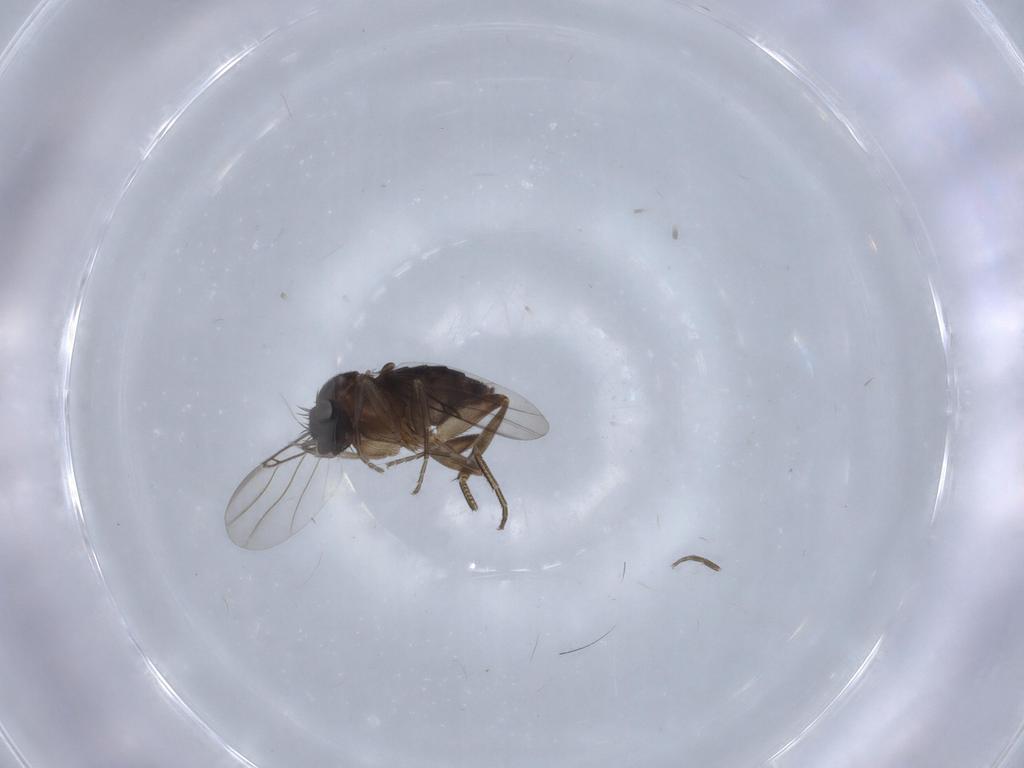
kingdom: Animalia
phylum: Arthropoda
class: Insecta
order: Diptera
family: Phoridae
